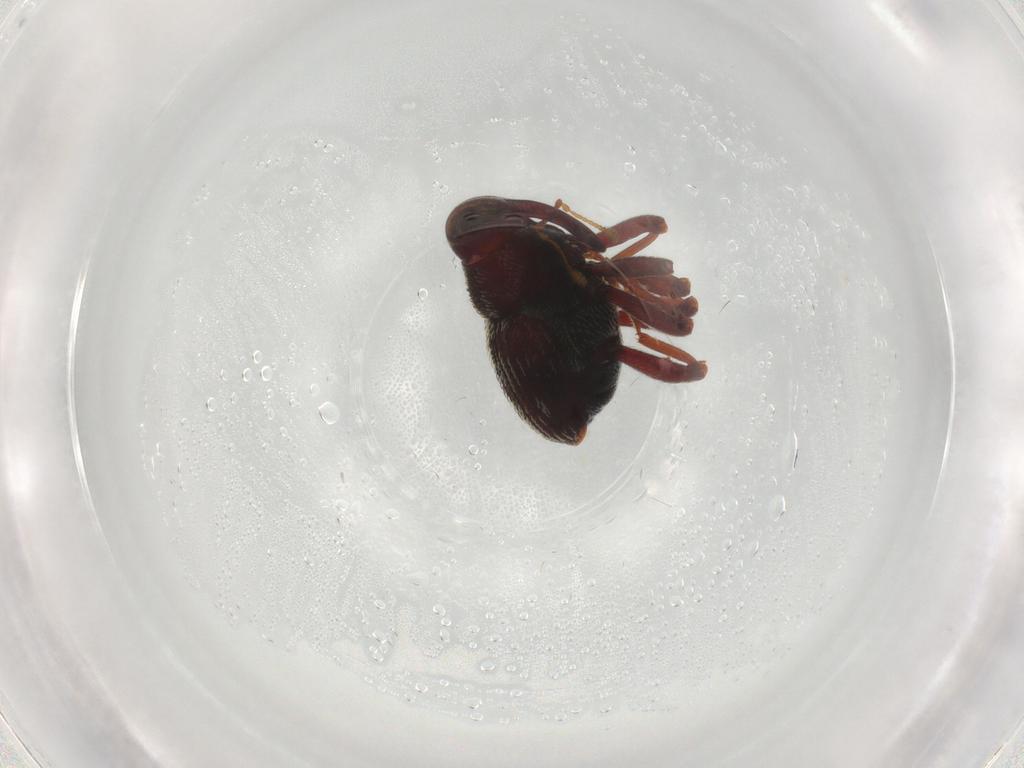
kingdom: Animalia
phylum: Arthropoda
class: Insecta
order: Coleoptera
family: Curculionidae
